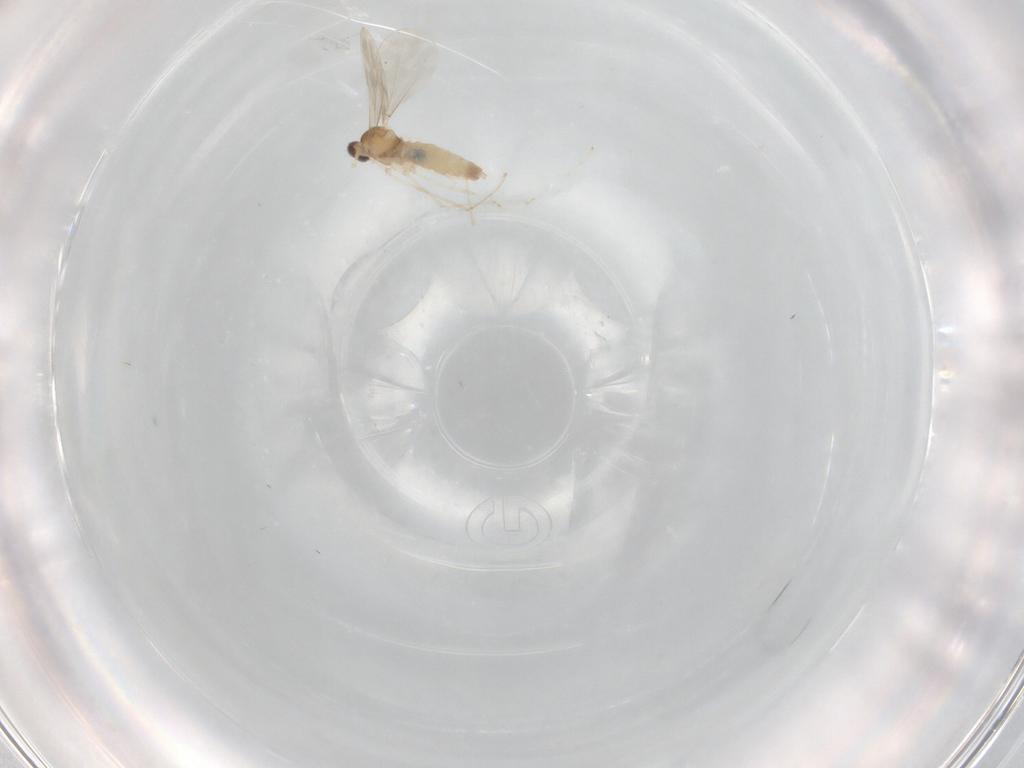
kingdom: Animalia
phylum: Arthropoda
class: Insecta
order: Diptera
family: Cecidomyiidae
